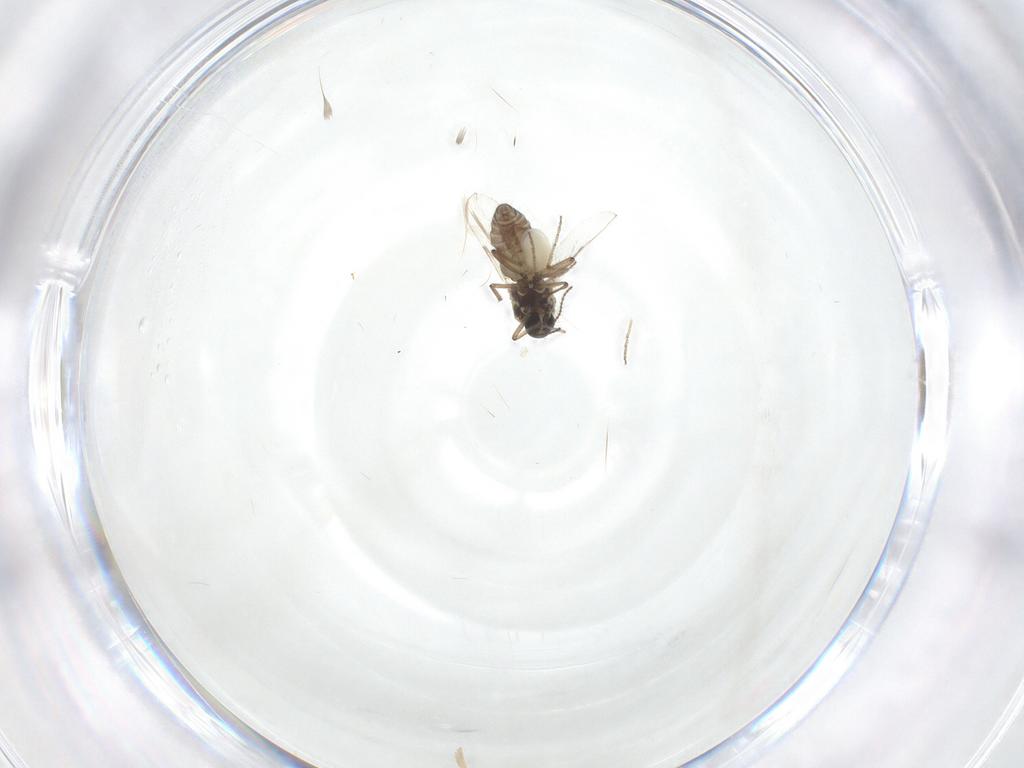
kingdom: Animalia
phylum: Arthropoda
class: Insecta
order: Diptera
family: Ceratopogonidae
